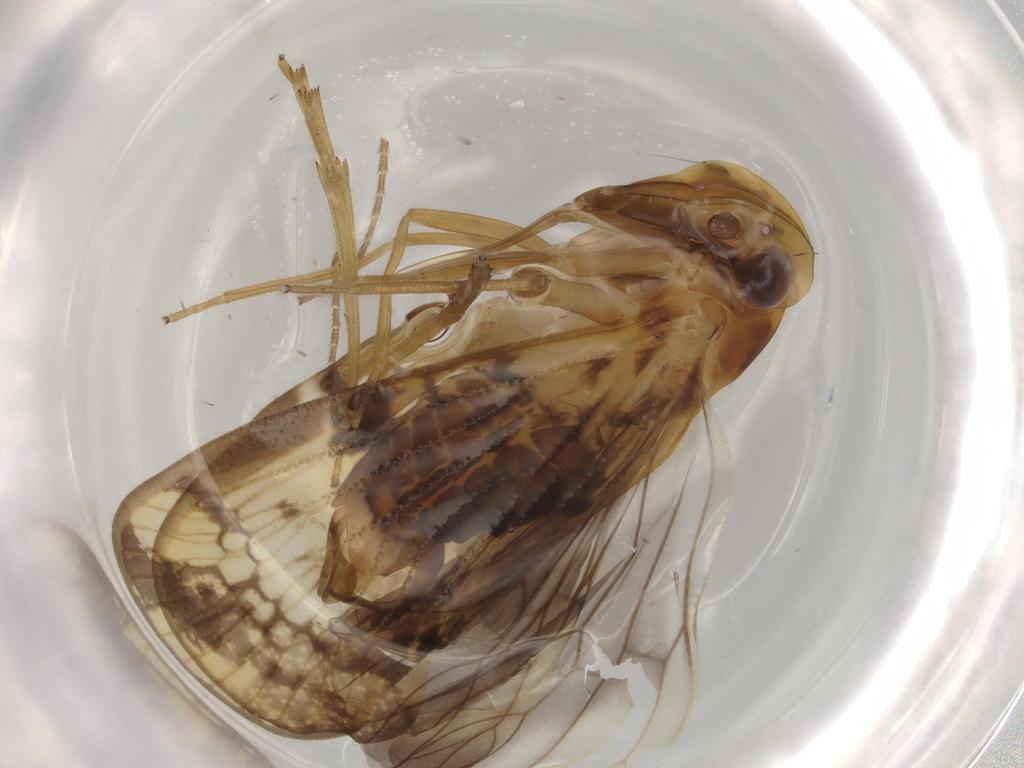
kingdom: Animalia
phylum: Arthropoda
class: Insecta
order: Hemiptera
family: Cixiidae
